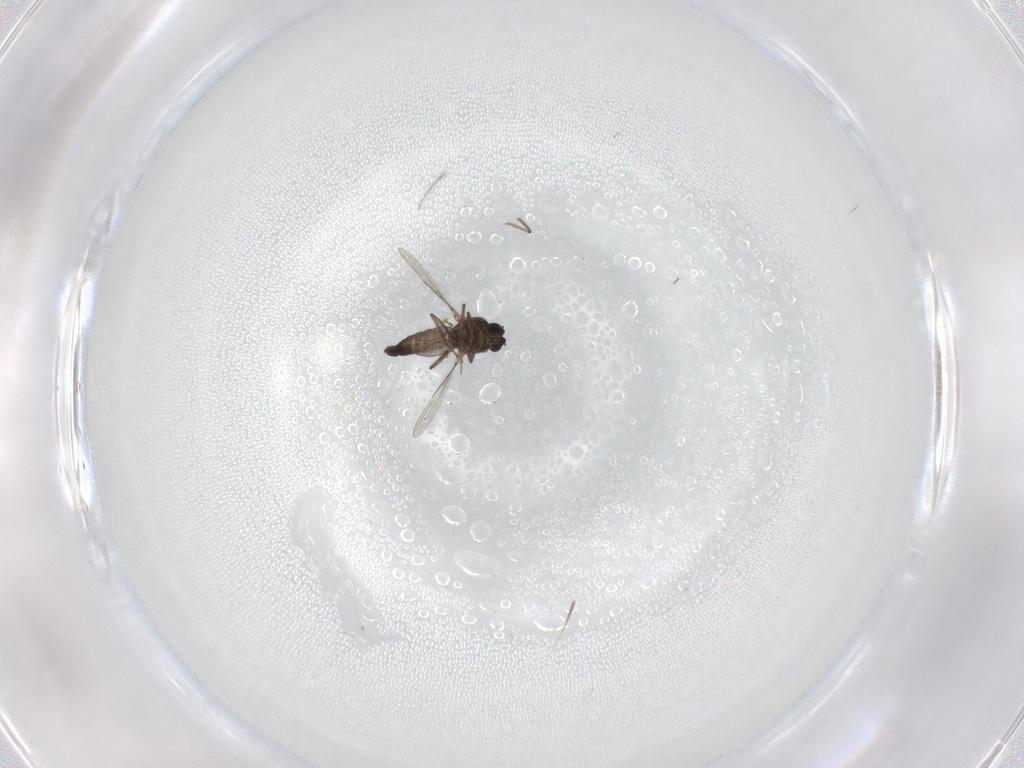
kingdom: Animalia
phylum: Arthropoda
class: Insecta
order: Diptera
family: Ceratopogonidae
